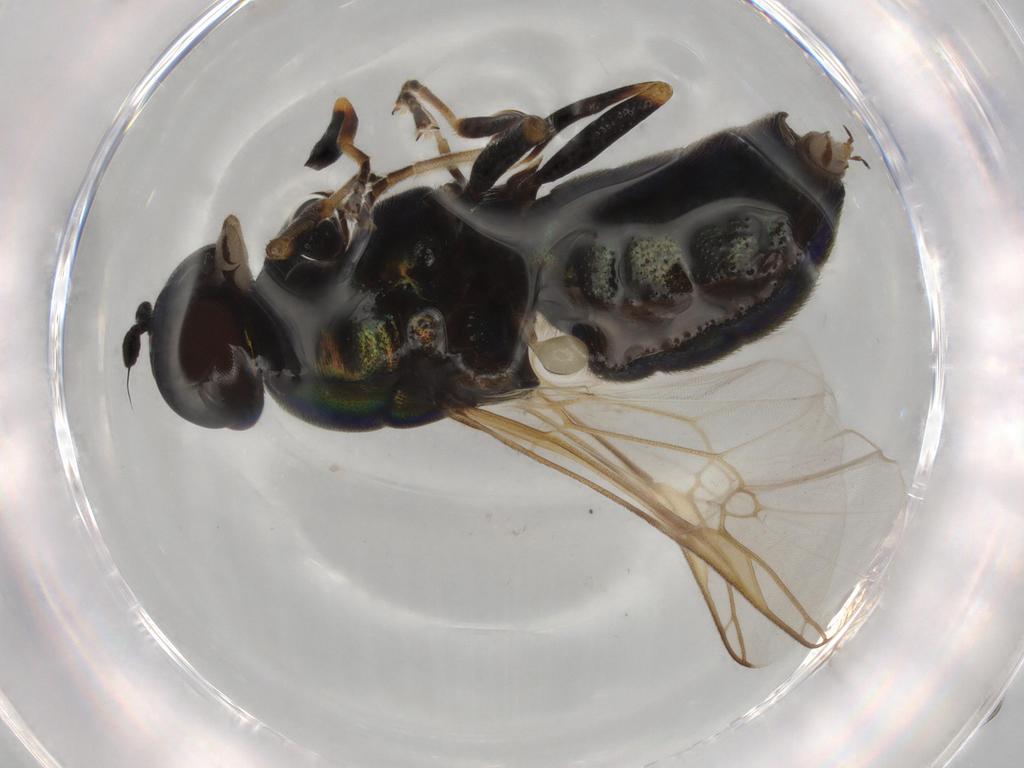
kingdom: Animalia
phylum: Arthropoda
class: Insecta
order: Diptera
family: Stratiomyidae
